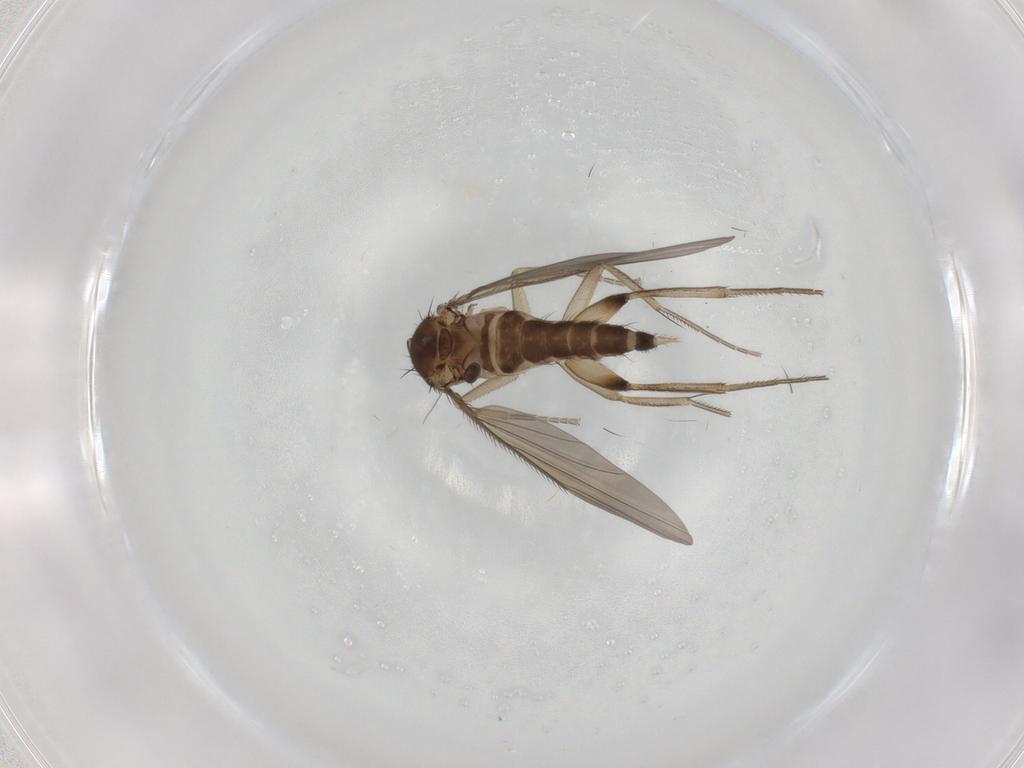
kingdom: Animalia
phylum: Arthropoda
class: Insecta
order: Diptera
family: Phoridae
